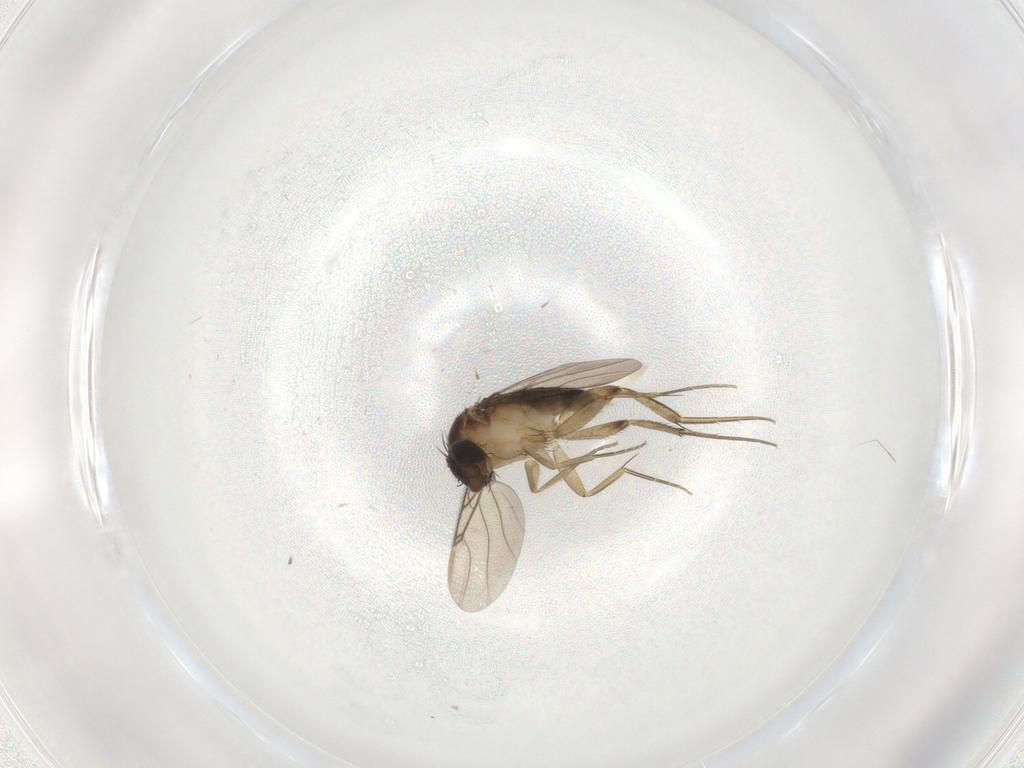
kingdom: Animalia
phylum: Arthropoda
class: Insecta
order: Diptera
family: Phoridae
